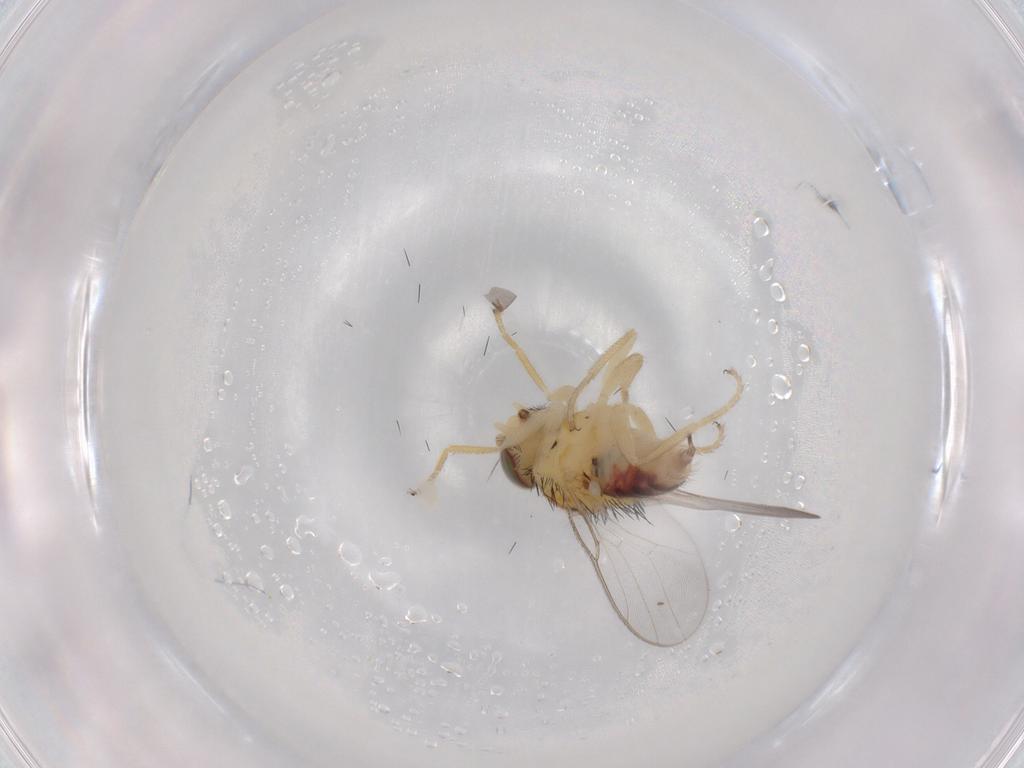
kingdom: Animalia
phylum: Arthropoda
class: Insecta
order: Diptera
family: Chloropidae
